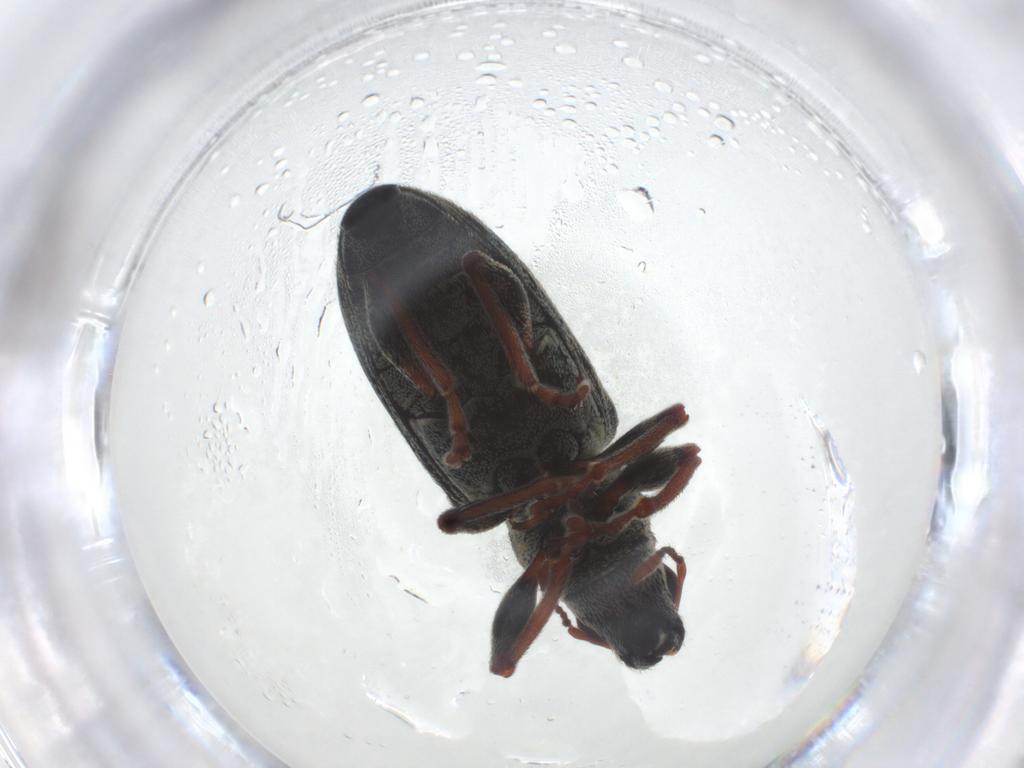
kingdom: Animalia
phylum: Arthropoda
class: Insecta
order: Coleoptera
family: Curculionidae
